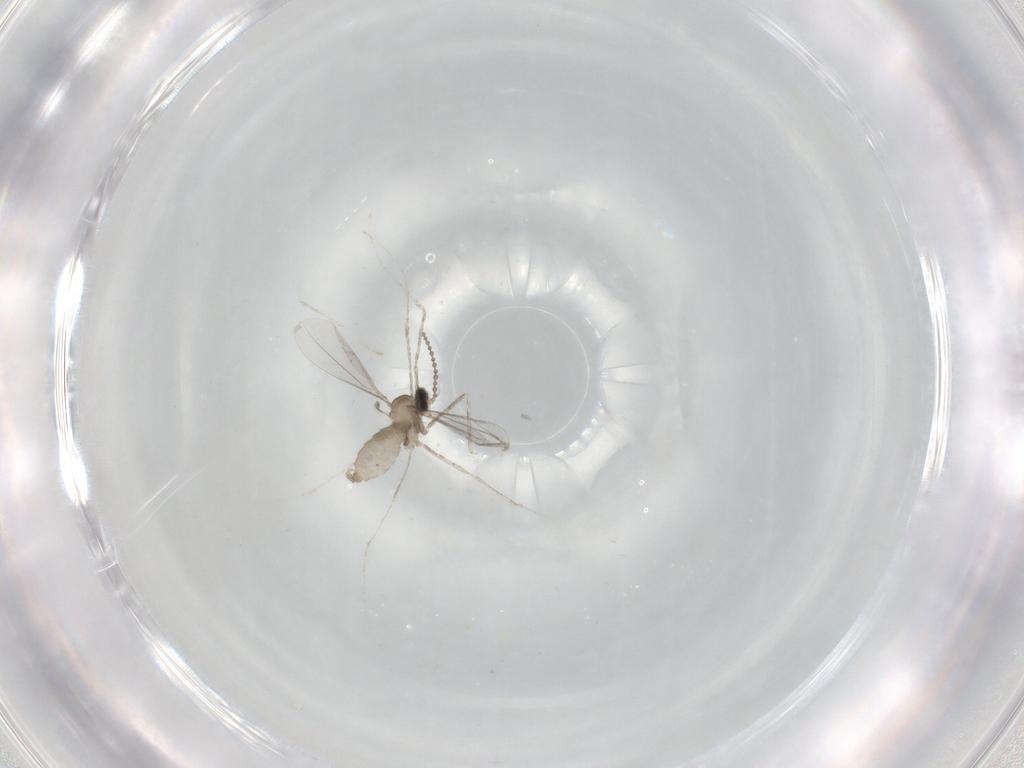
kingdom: Animalia
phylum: Arthropoda
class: Insecta
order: Diptera
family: Cecidomyiidae
